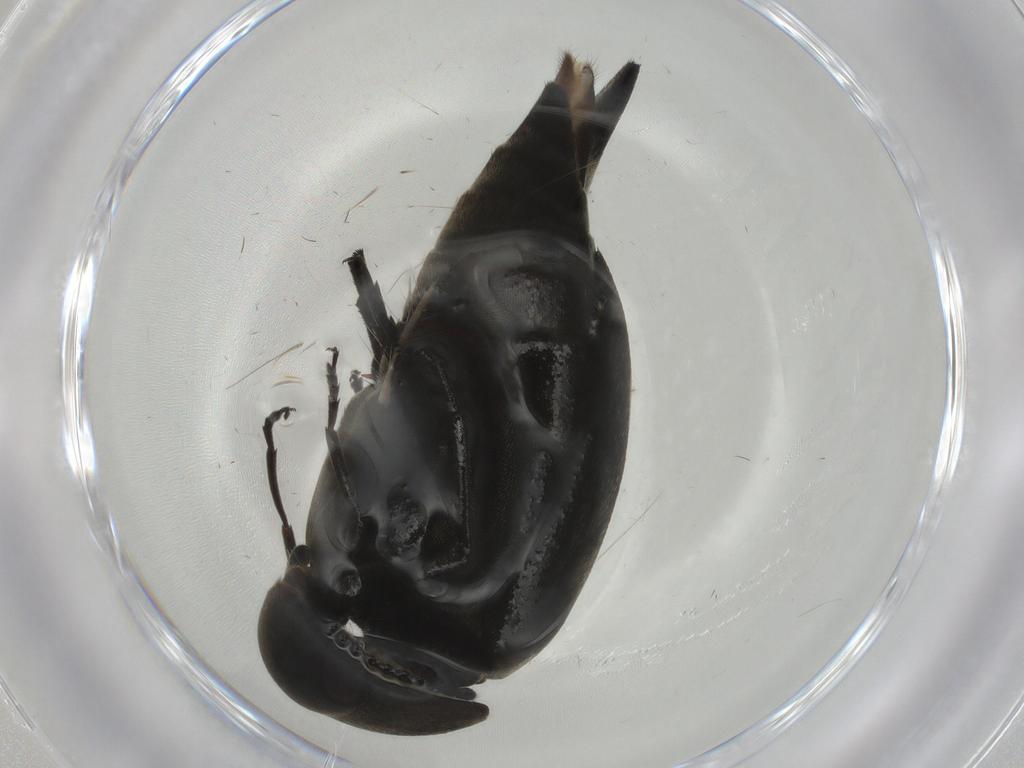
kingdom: Animalia
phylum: Arthropoda
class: Insecta
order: Coleoptera
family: Mordellidae
